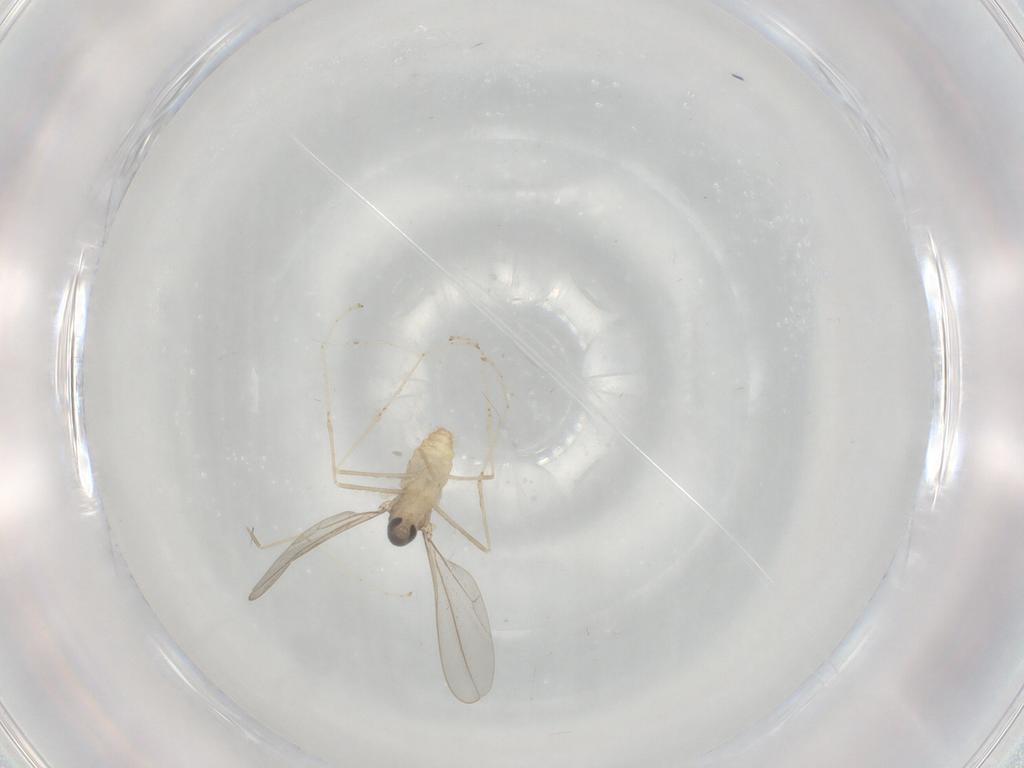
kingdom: Animalia
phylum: Arthropoda
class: Insecta
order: Diptera
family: Cecidomyiidae
